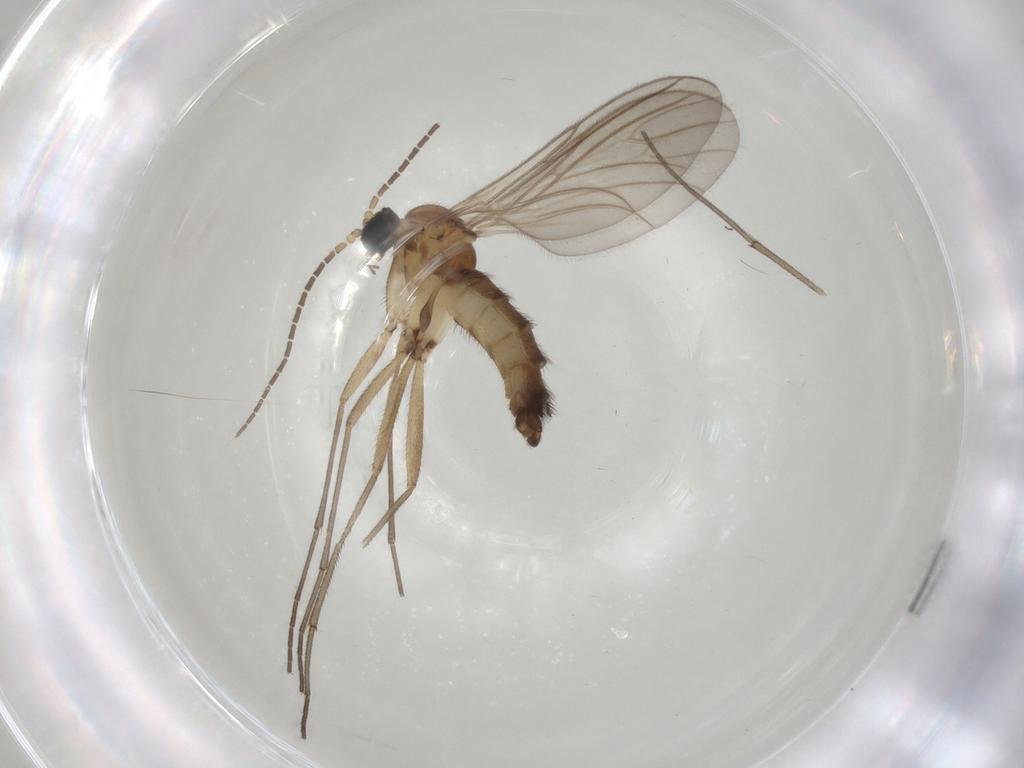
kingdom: Animalia
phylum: Arthropoda
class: Insecta
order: Diptera
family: Sciaridae
